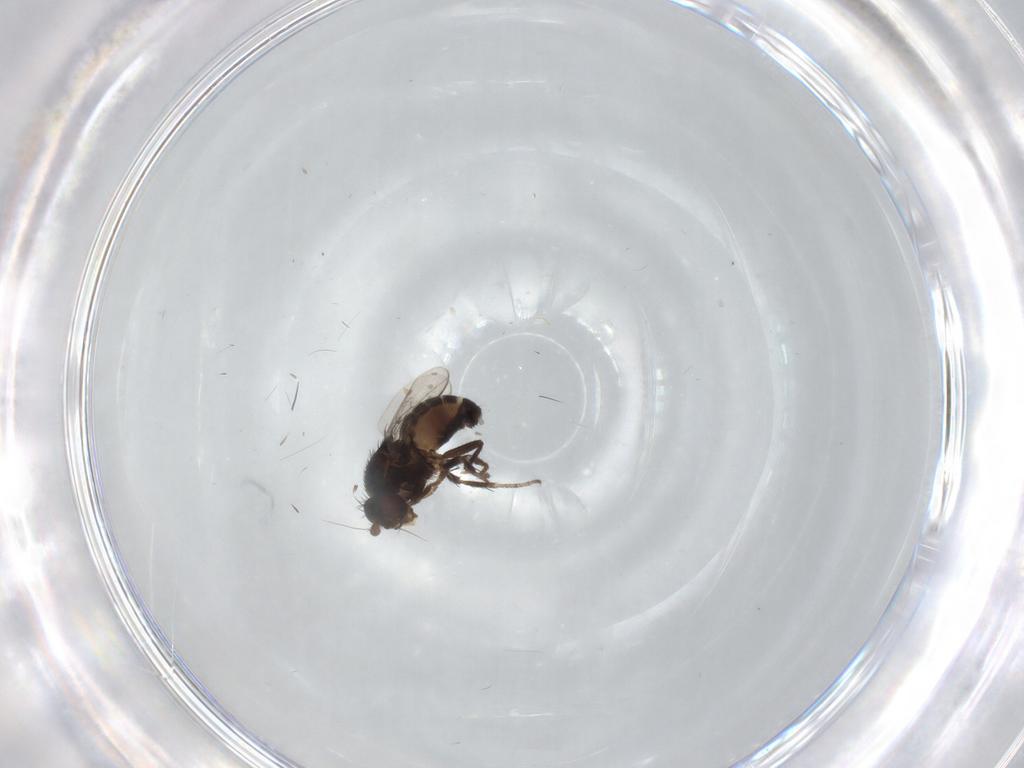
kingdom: Animalia
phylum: Arthropoda
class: Insecta
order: Diptera
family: Sphaeroceridae
